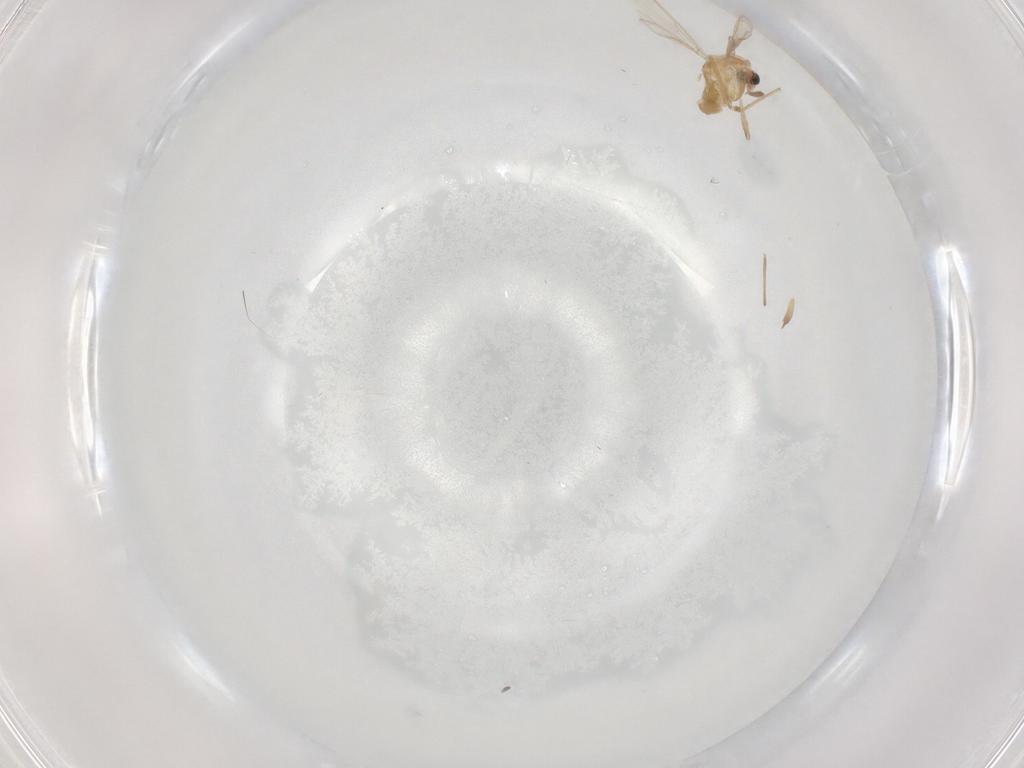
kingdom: Animalia
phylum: Arthropoda
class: Insecta
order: Diptera
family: Chironomidae
